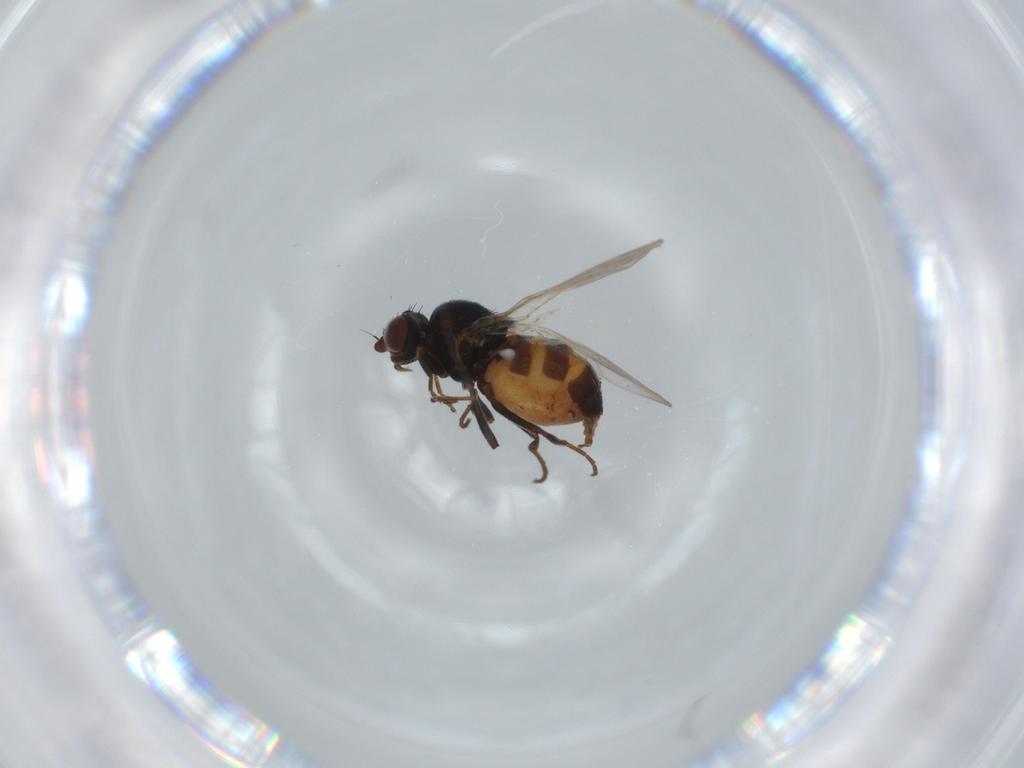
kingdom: Animalia
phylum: Arthropoda
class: Insecta
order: Diptera
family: Chloropidae
